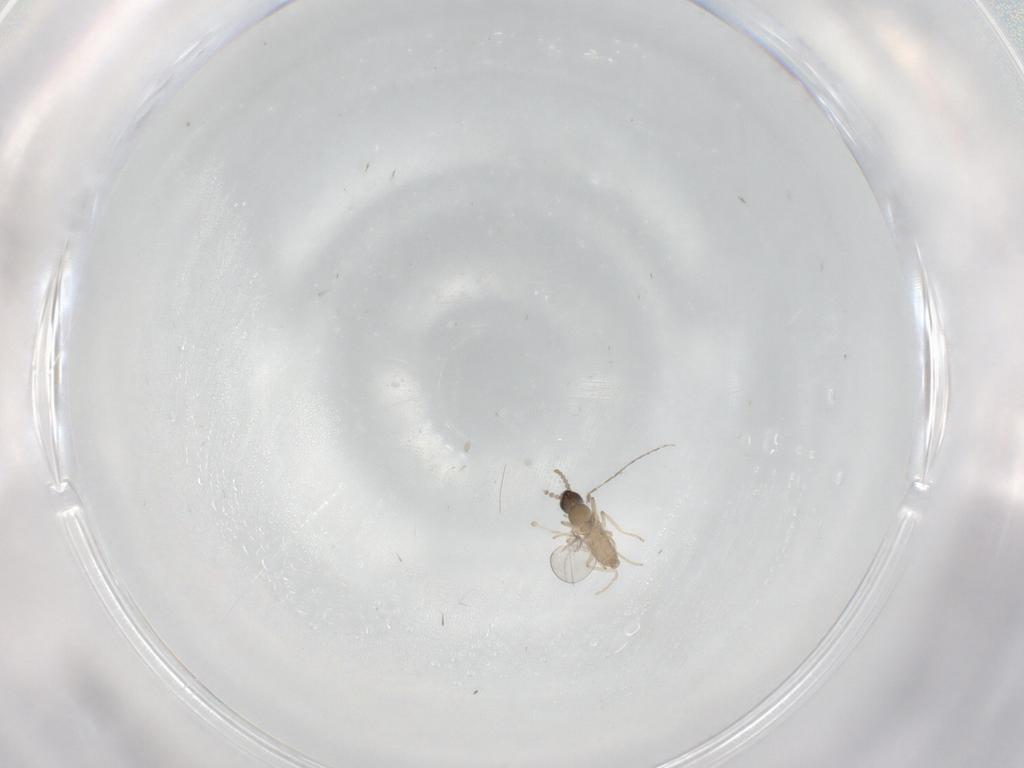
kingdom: Animalia
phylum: Arthropoda
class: Insecta
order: Diptera
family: Cecidomyiidae
